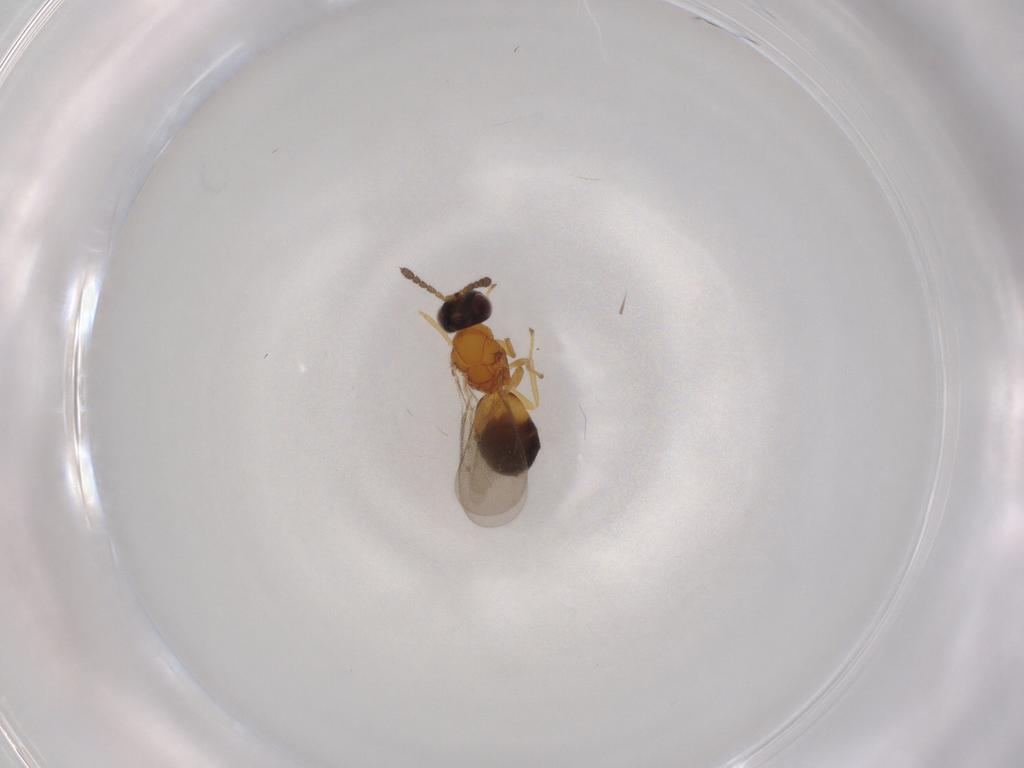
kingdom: Animalia
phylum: Arthropoda
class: Insecta
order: Hymenoptera
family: Eulophidae
